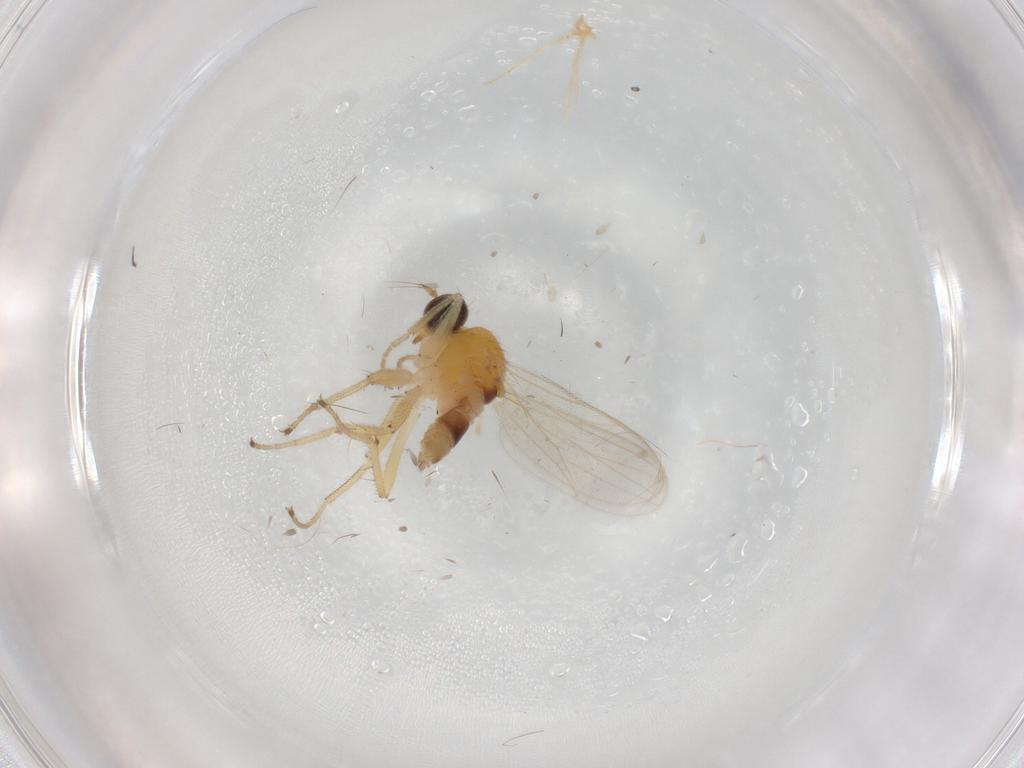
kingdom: Animalia
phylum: Arthropoda
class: Insecta
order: Diptera
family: Hybotidae
